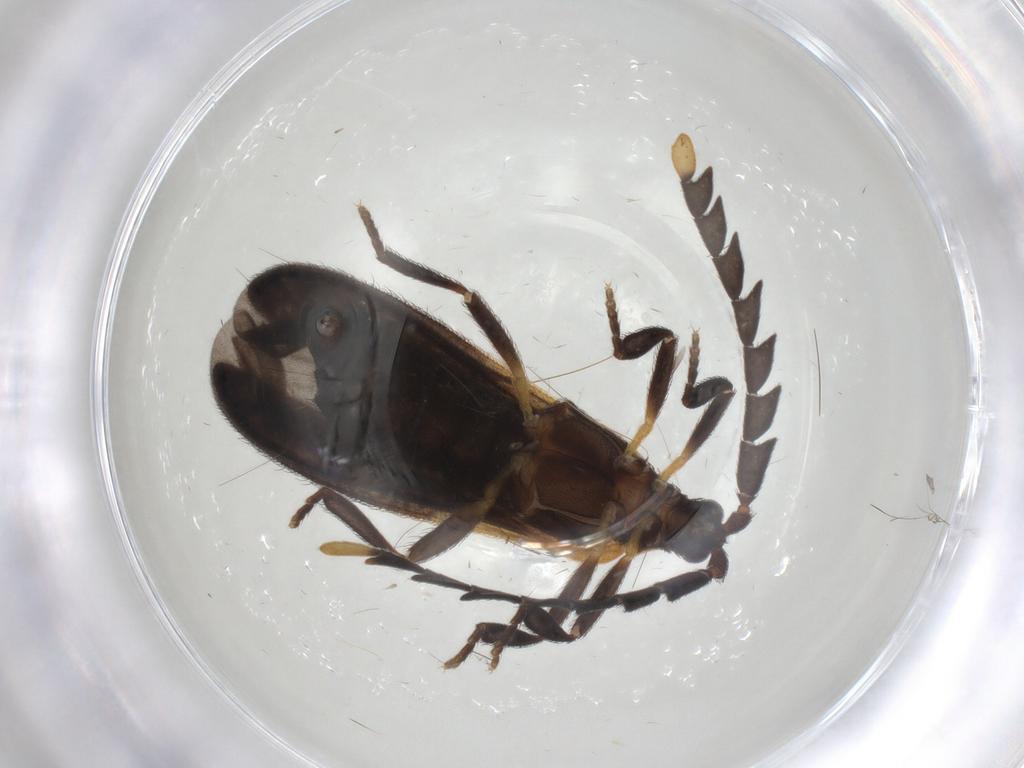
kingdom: Animalia
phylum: Arthropoda
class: Insecta
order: Coleoptera
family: Lycidae
